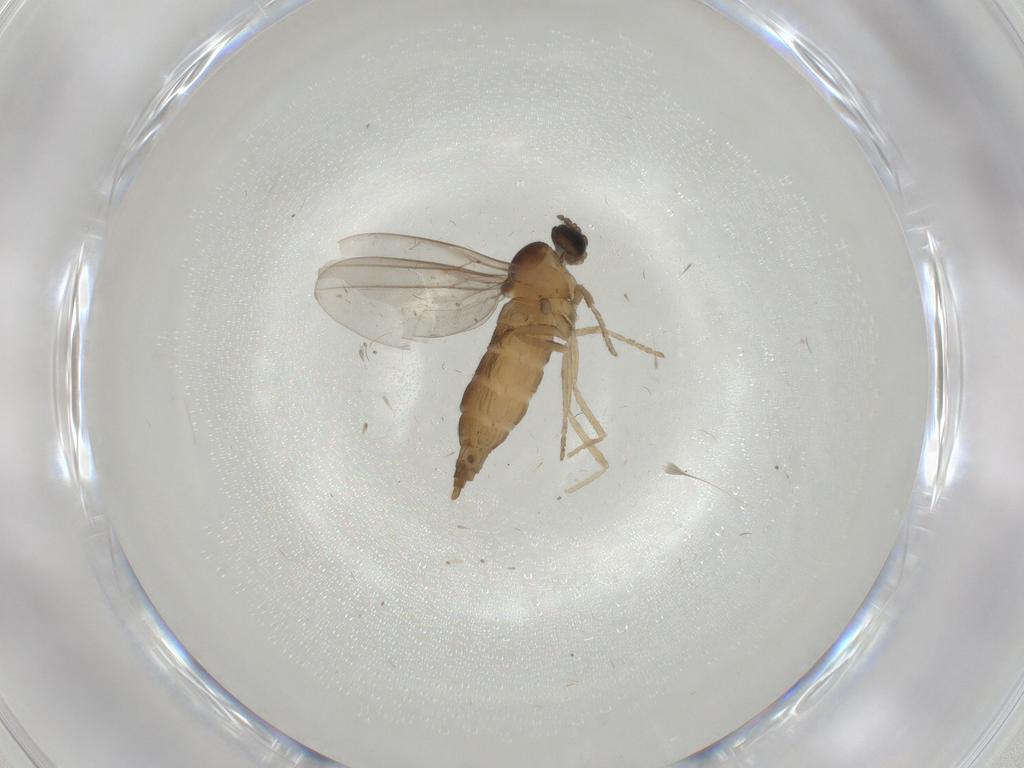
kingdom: Animalia
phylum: Arthropoda
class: Insecta
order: Diptera
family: Cecidomyiidae
